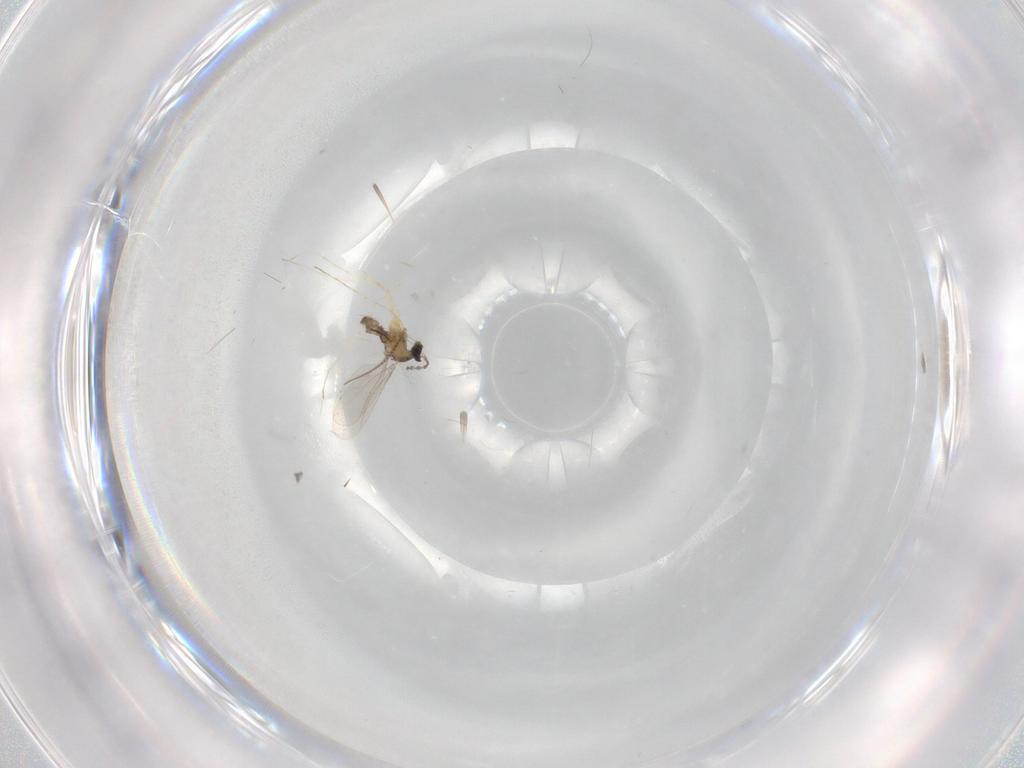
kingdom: Animalia
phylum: Arthropoda
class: Insecta
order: Diptera
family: Cecidomyiidae
